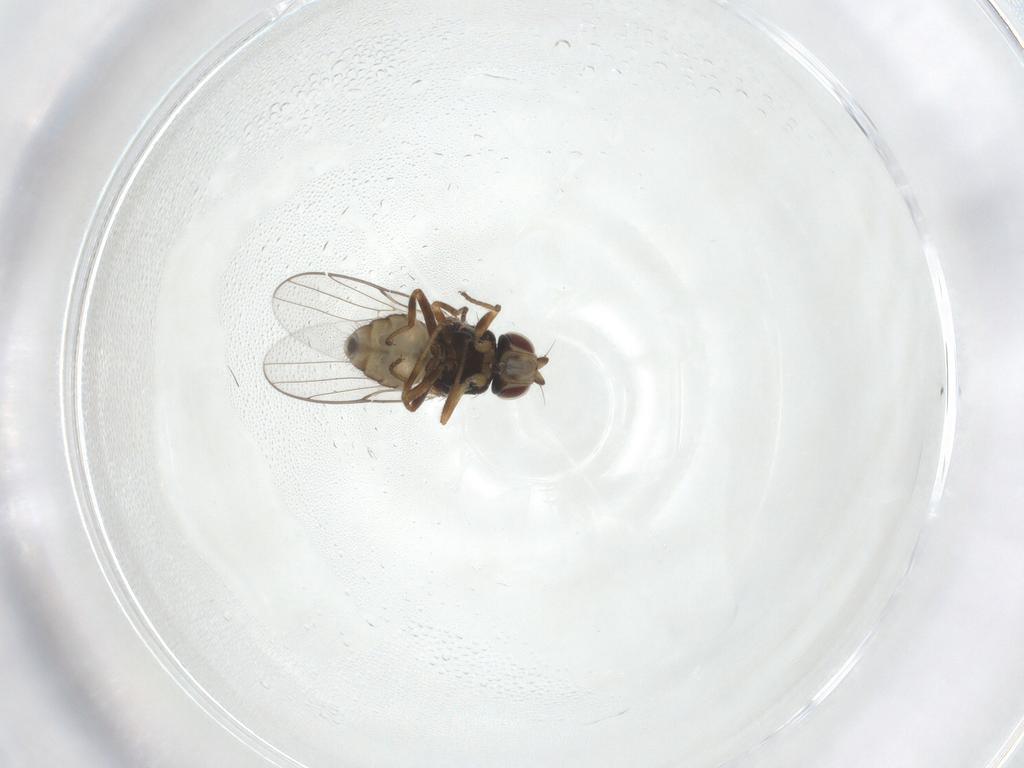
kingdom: Animalia
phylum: Arthropoda
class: Insecta
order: Diptera
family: Chloropidae
